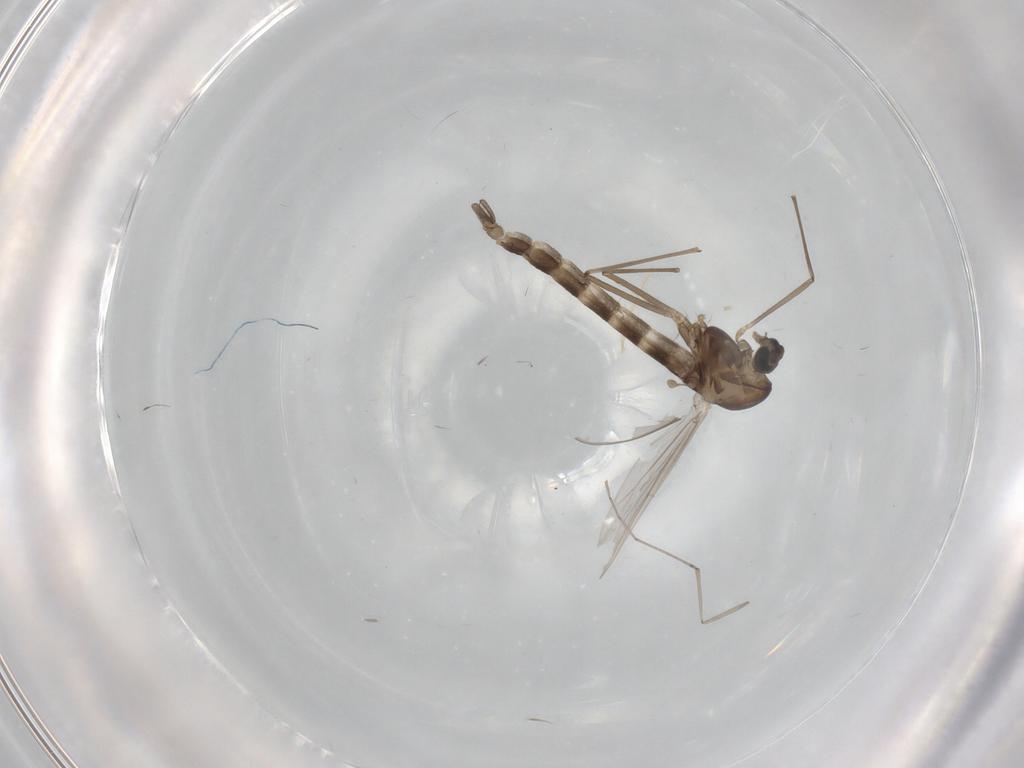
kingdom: Animalia
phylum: Arthropoda
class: Insecta
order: Diptera
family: Chironomidae
